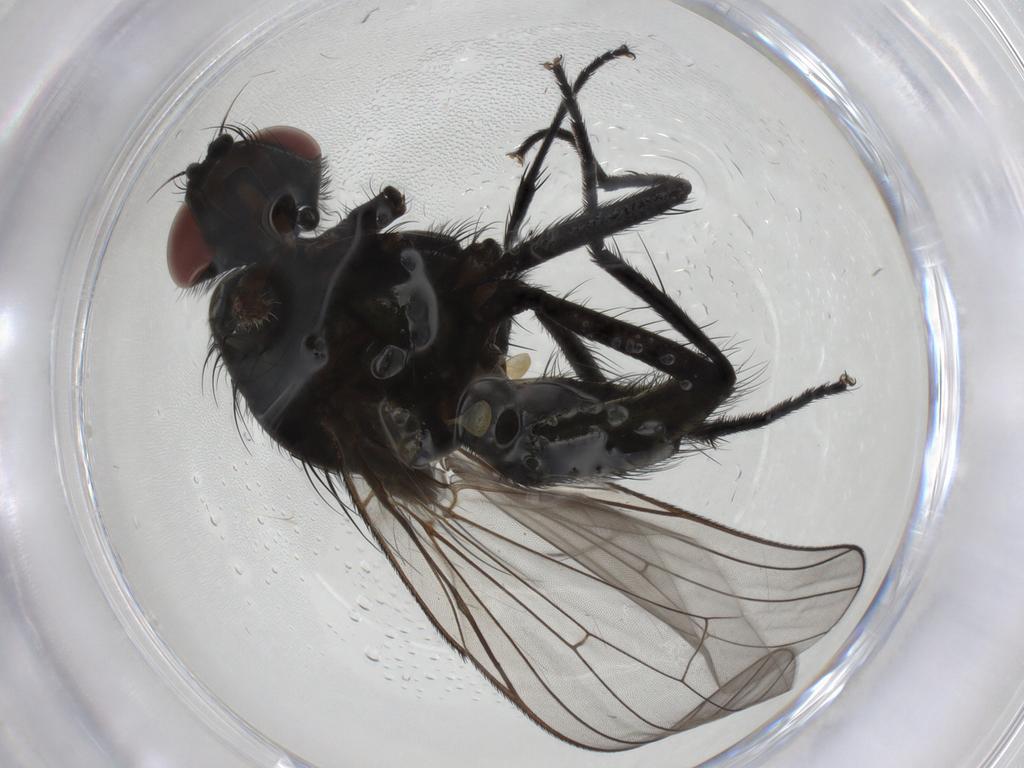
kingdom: Animalia
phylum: Arthropoda
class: Insecta
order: Diptera
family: Anthomyiidae
